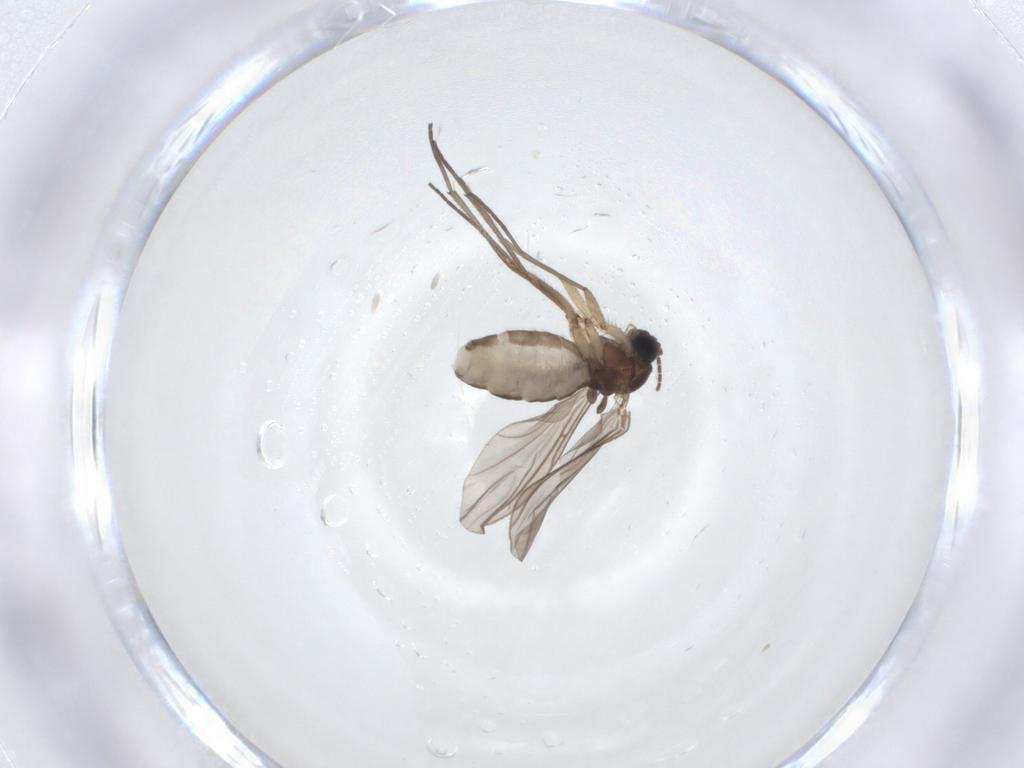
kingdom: Animalia
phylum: Arthropoda
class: Insecta
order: Diptera
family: Sciaridae
